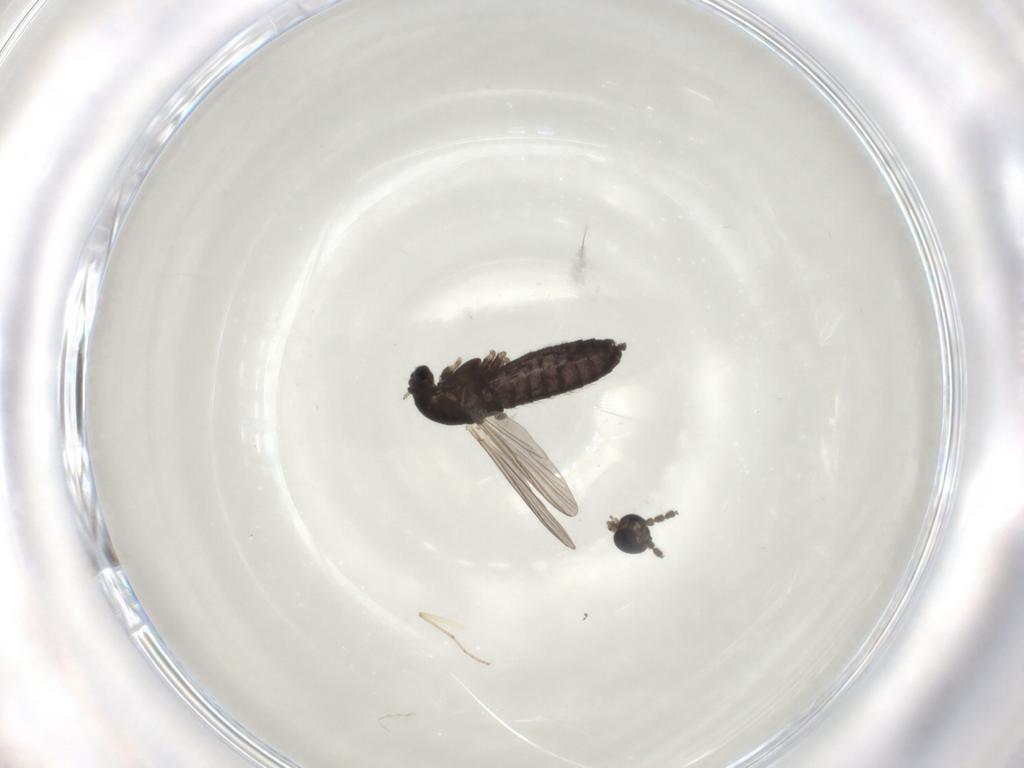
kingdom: Animalia
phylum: Arthropoda
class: Insecta
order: Diptera
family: Chironomidae
